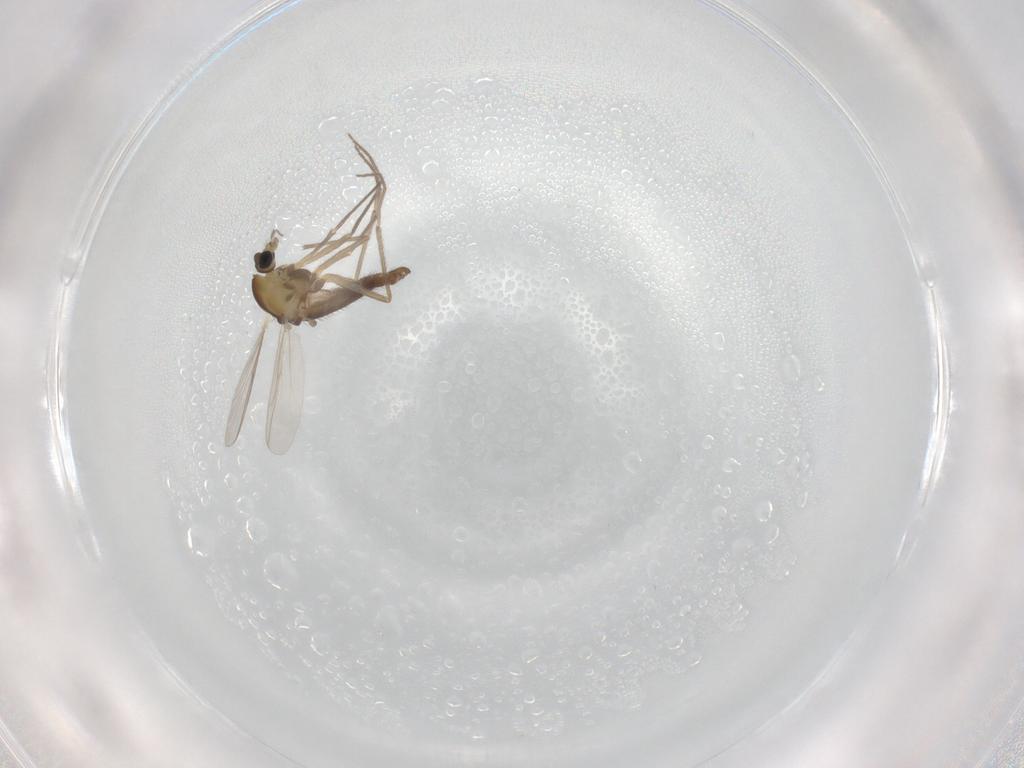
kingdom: Animalia
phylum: Arthropoda
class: Insecta
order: Diptera
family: Chironomidae
